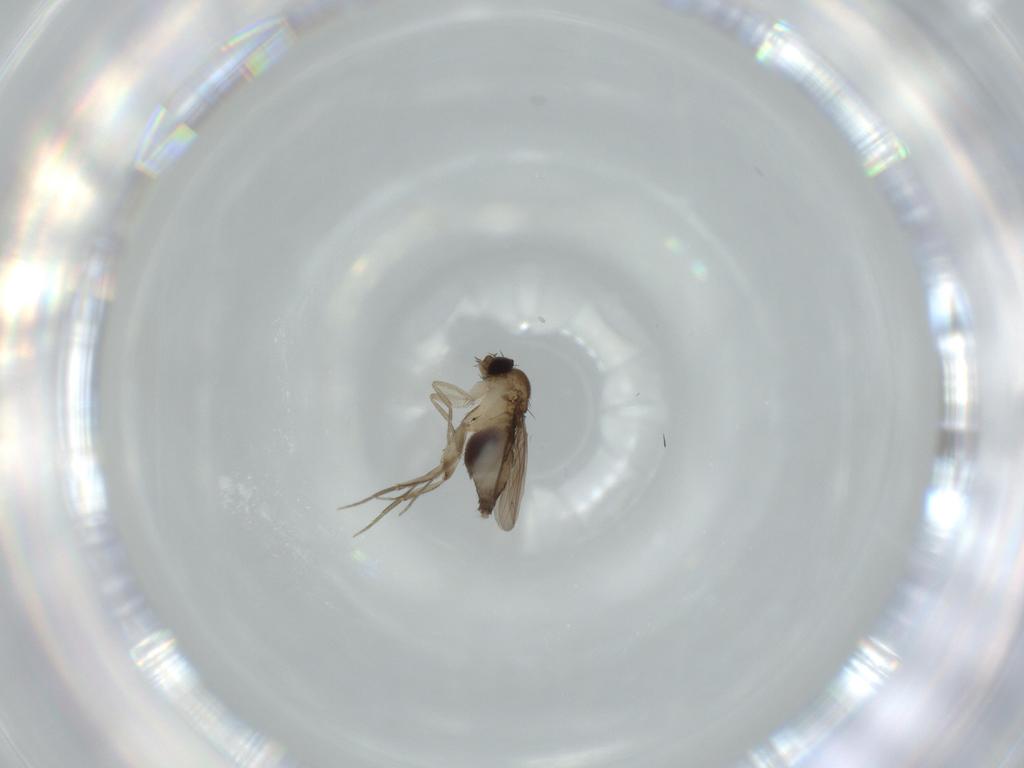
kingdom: Animalia
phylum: Arthropoda
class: Insecta
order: Diptera
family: Phoridae
